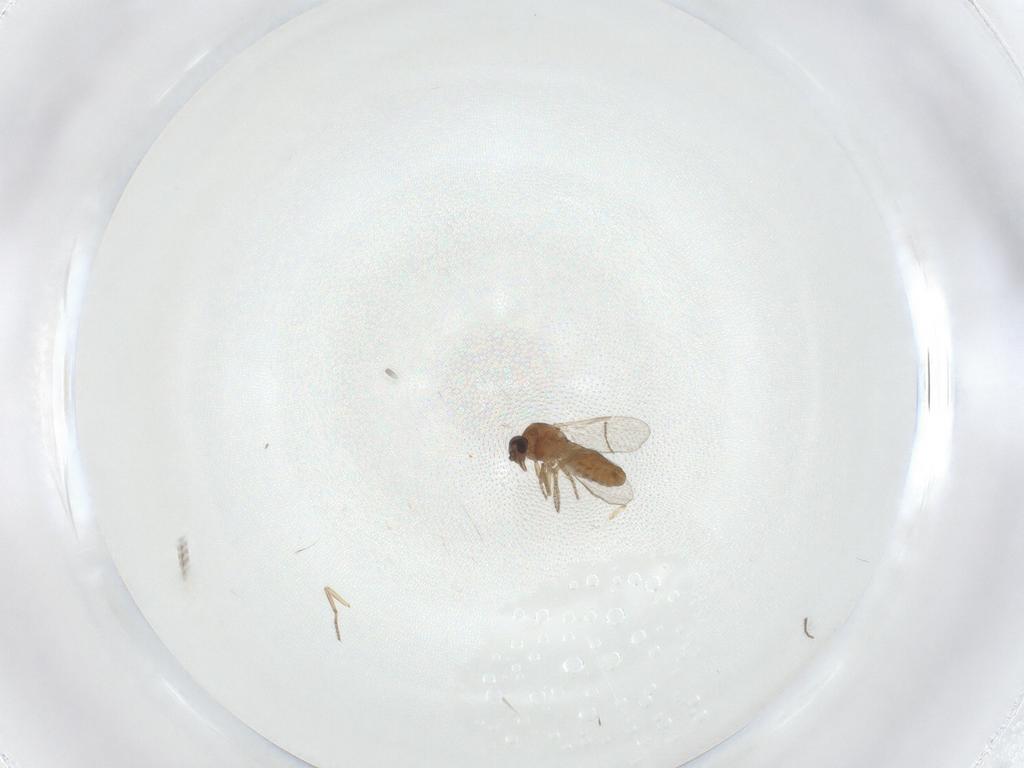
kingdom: Animalia
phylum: Arthropoda
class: Insecta
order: Diptera
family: Ceratopogonidae
